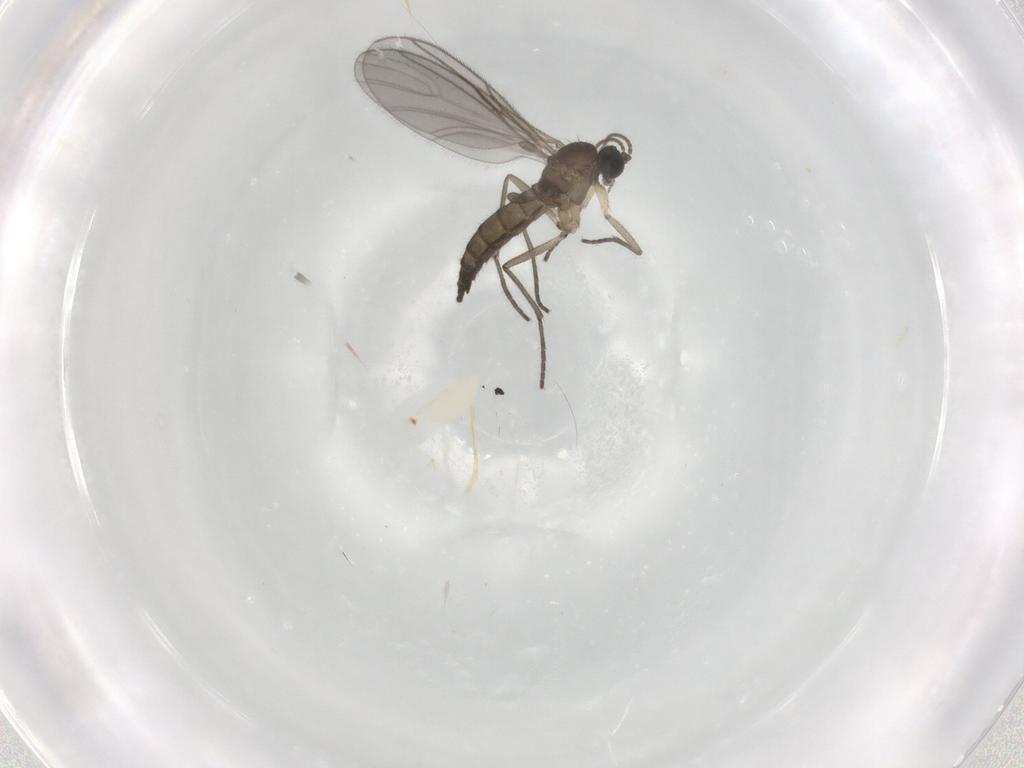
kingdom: Animalia
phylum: Arthropoda
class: Insecta
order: Diptera
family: Sciaridae
